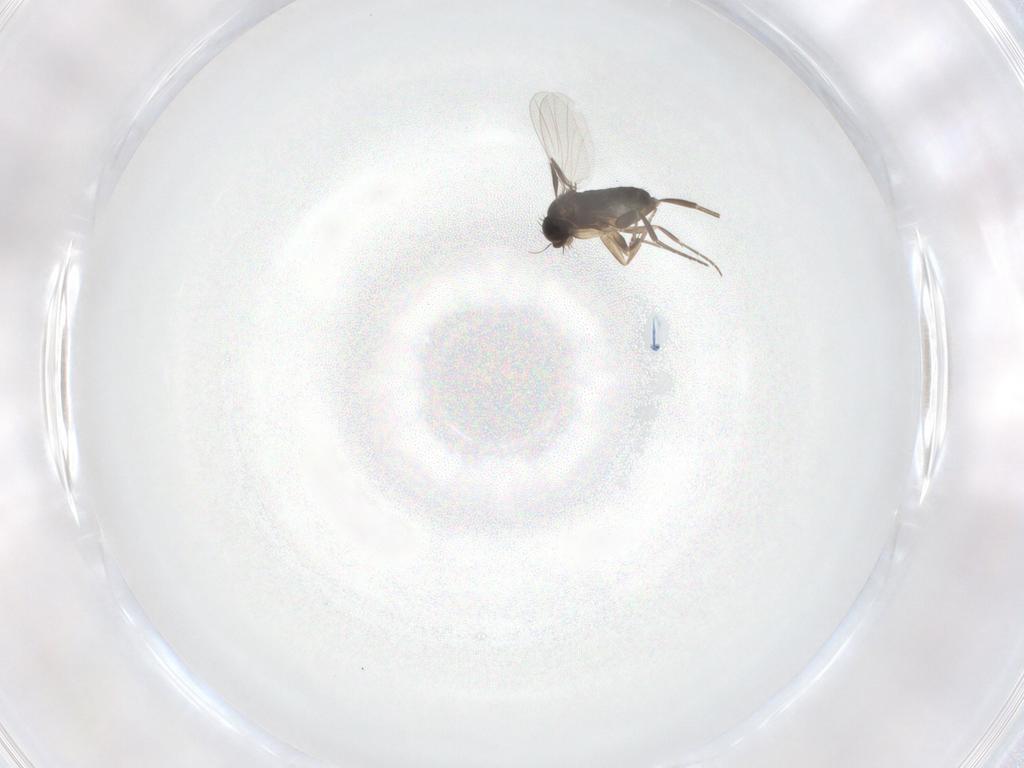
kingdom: Animalia
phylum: Arthropoda
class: Insecta
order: Diptera
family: Phoridae
